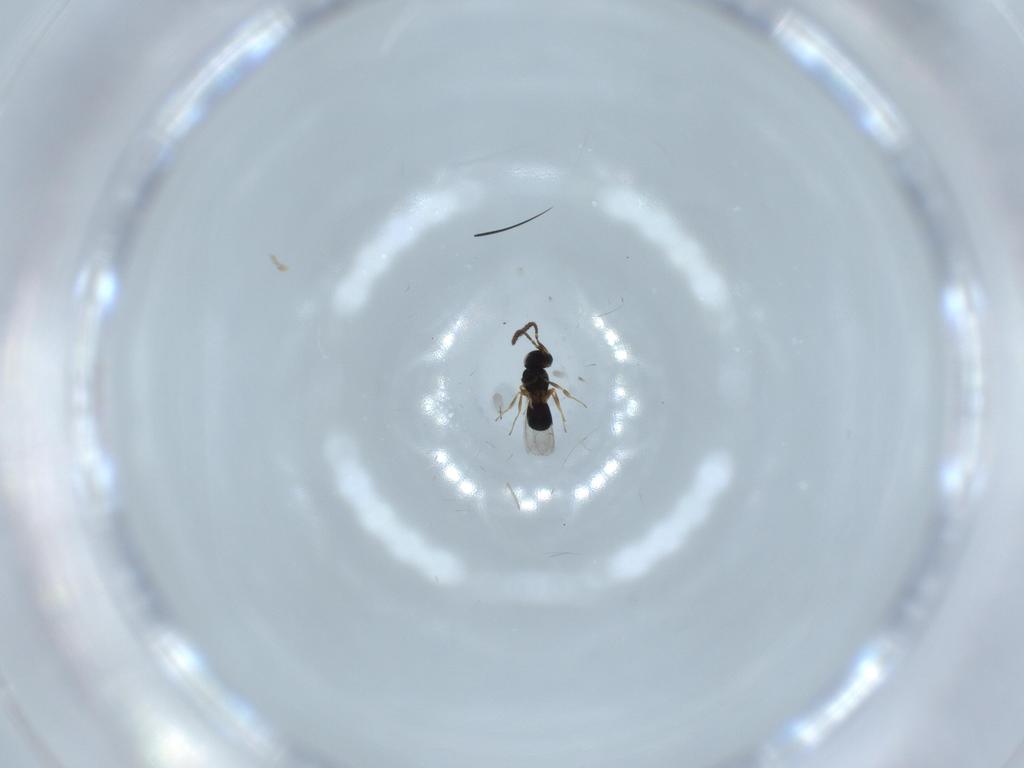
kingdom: Animalia
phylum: Arthropoda
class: Insecta
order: Hymenoptera
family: Scelionidae
